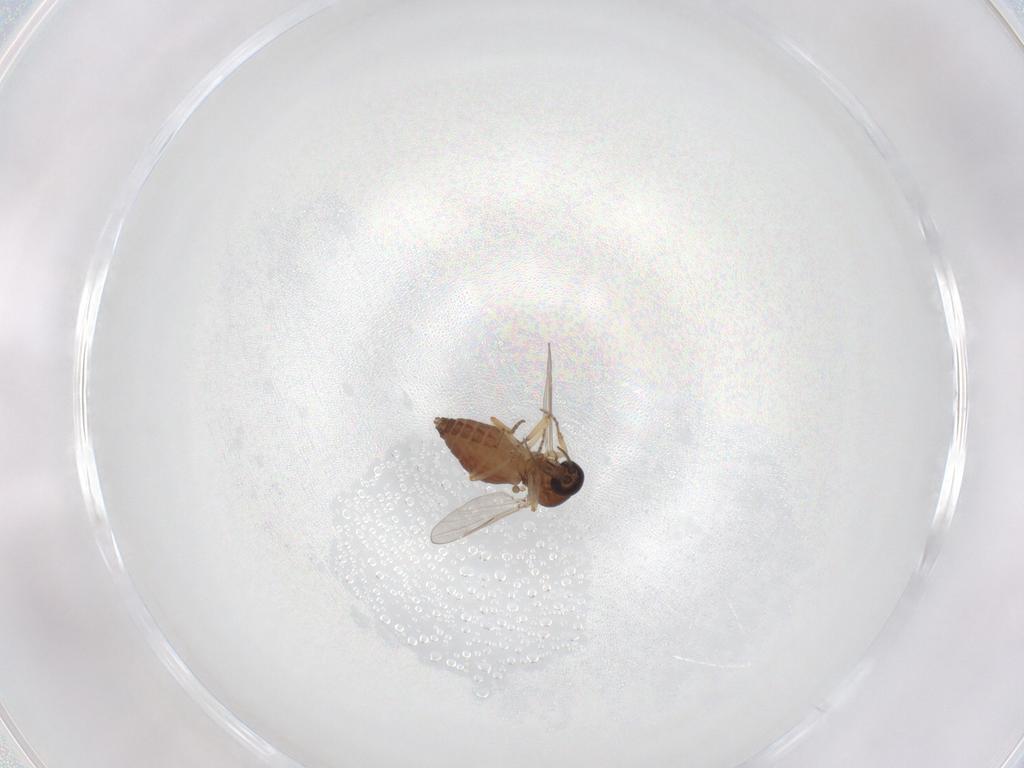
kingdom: Animalia
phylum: Arthropoda
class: Insecta
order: Diptera
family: Ceratopogonidae
